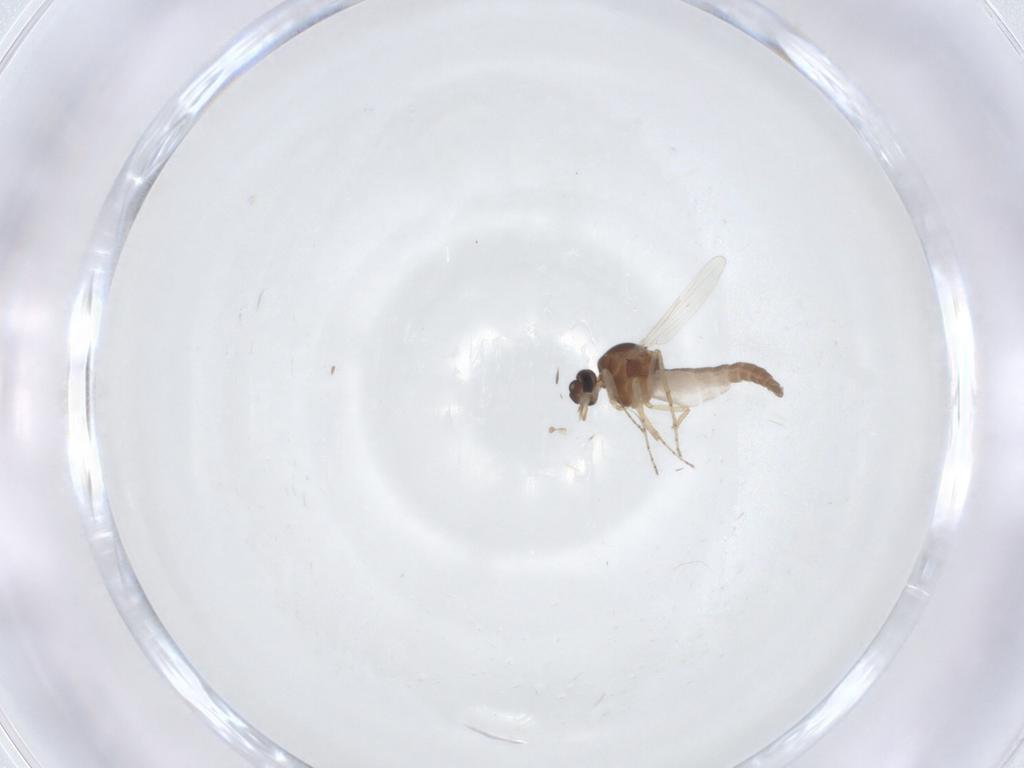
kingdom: Animalia
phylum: Arthropoda
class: Insecta
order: Diptera
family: Ceratopogonidae
